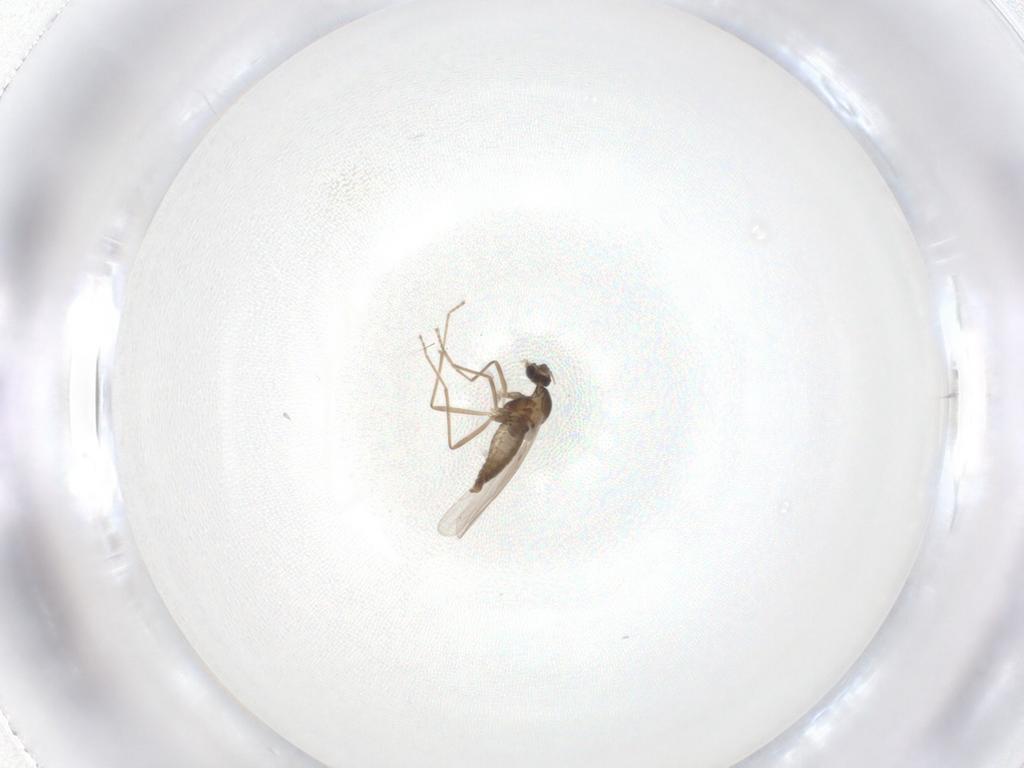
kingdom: Animalia
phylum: Arthropoda
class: Insecta
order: Diptera
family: Cecidomyiidae
